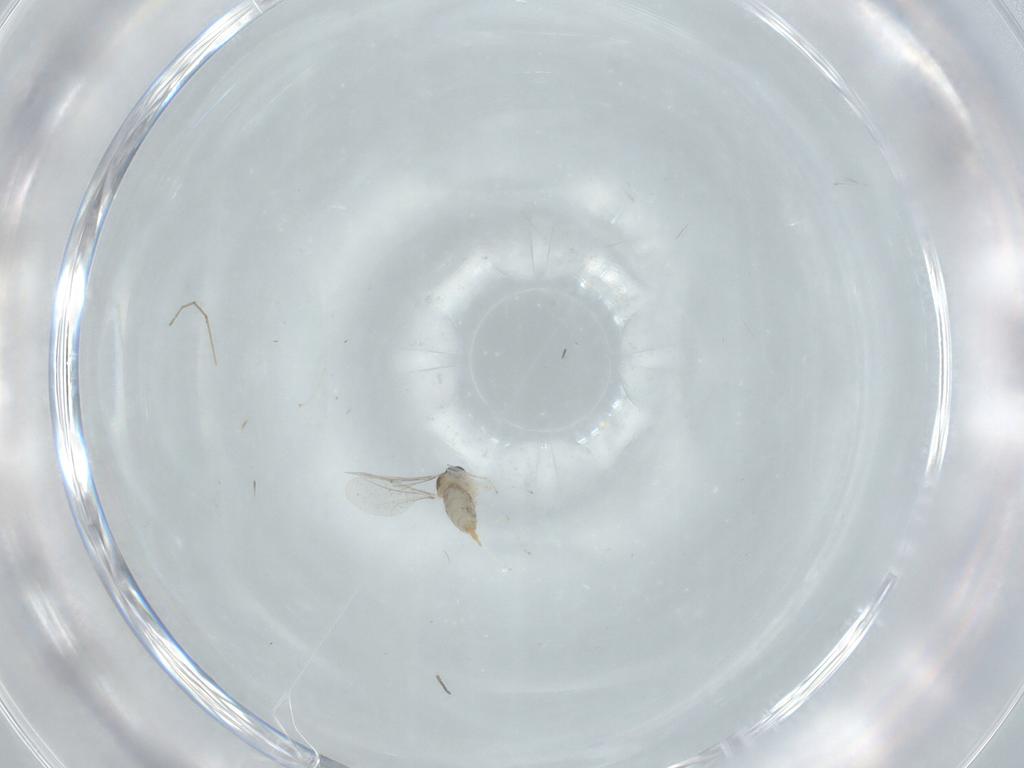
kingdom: Animalia
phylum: Arthropoda
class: Insecta
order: Diptera
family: Cecidomyiidae
